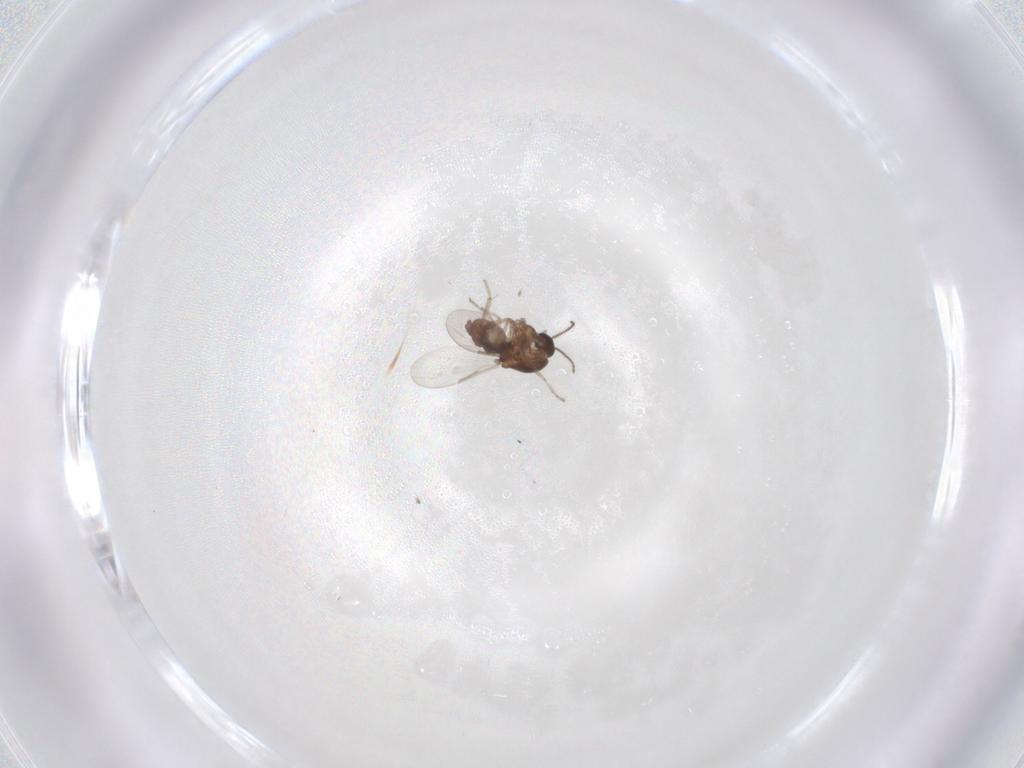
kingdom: Animalia
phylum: Arthropoda
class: Insecta
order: Diptera
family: Ceratopogonidae
